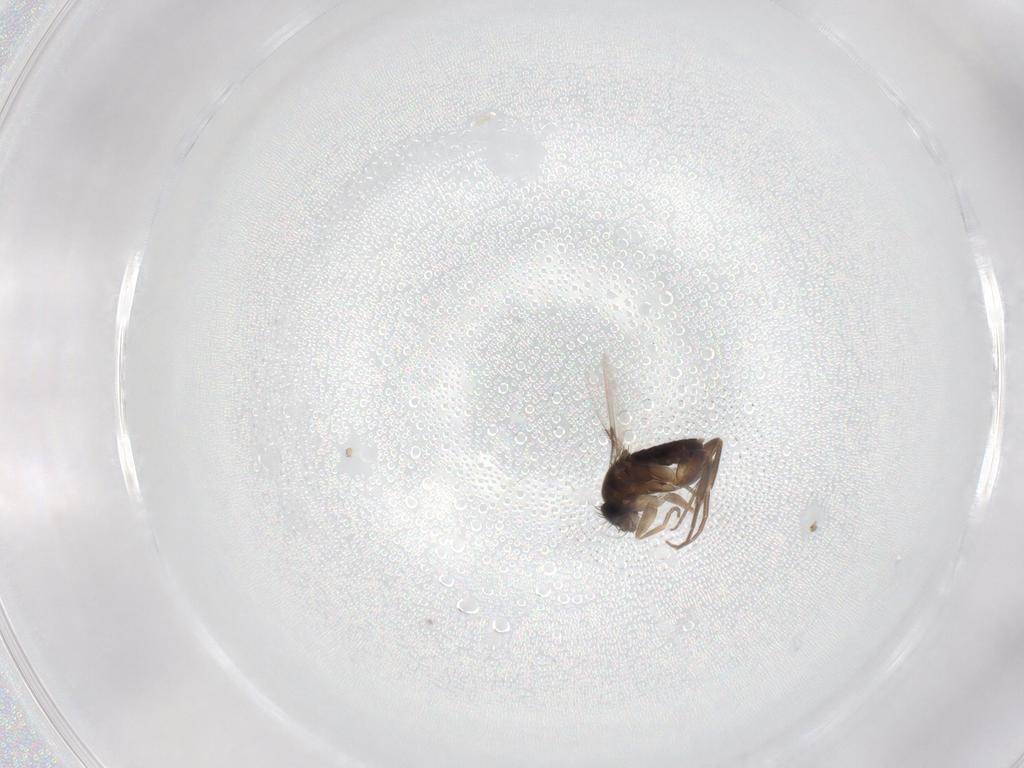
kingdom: Animalia
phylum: Arthropoda
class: Insecta
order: Diptera
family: Phoridae
